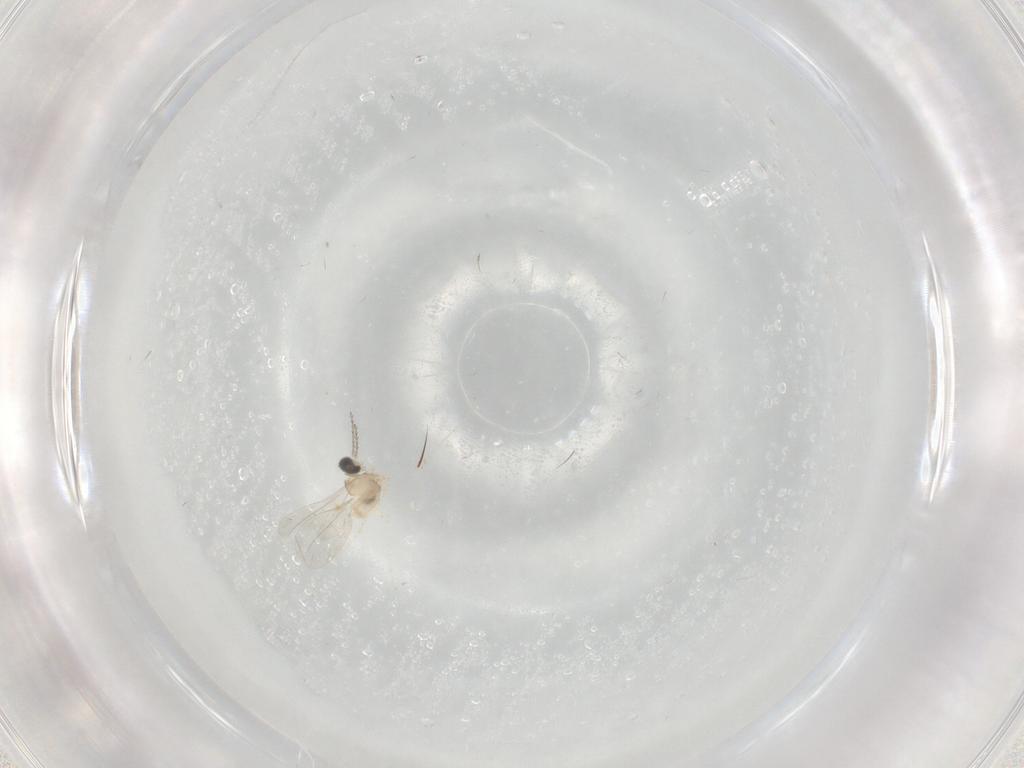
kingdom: Animalia
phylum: Arthropoda
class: Insecta
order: Diptera
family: Cecidomyiidae
